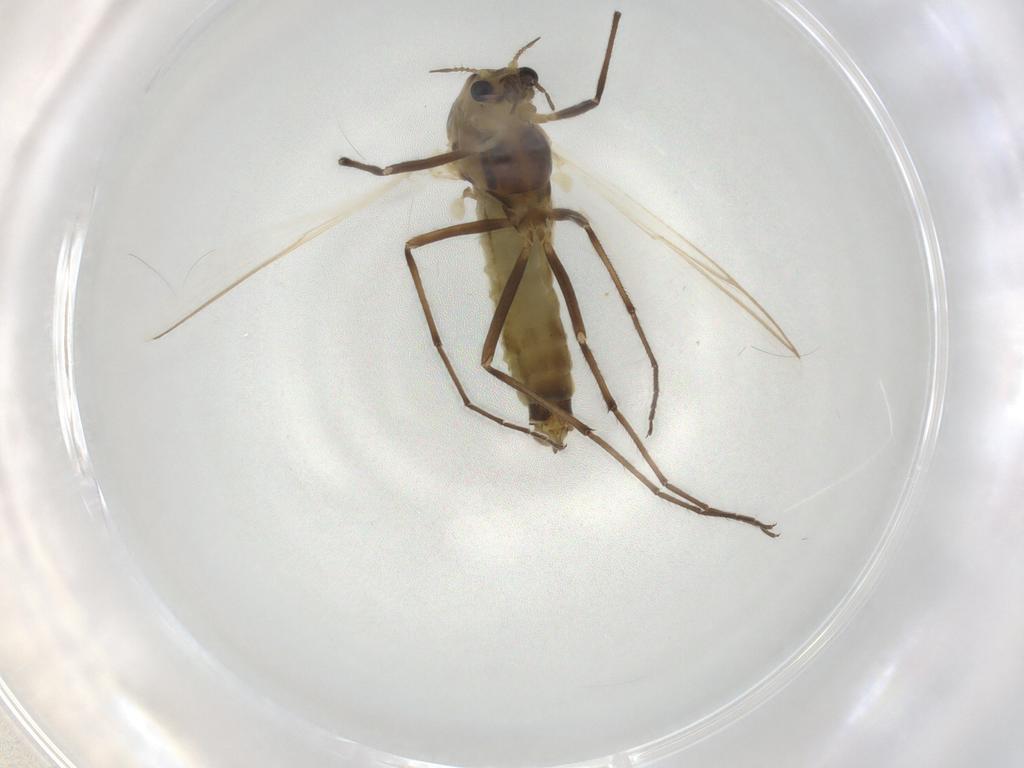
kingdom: Animalia
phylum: Arthropoda
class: Insecta
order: Diptera
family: Chironomidae
